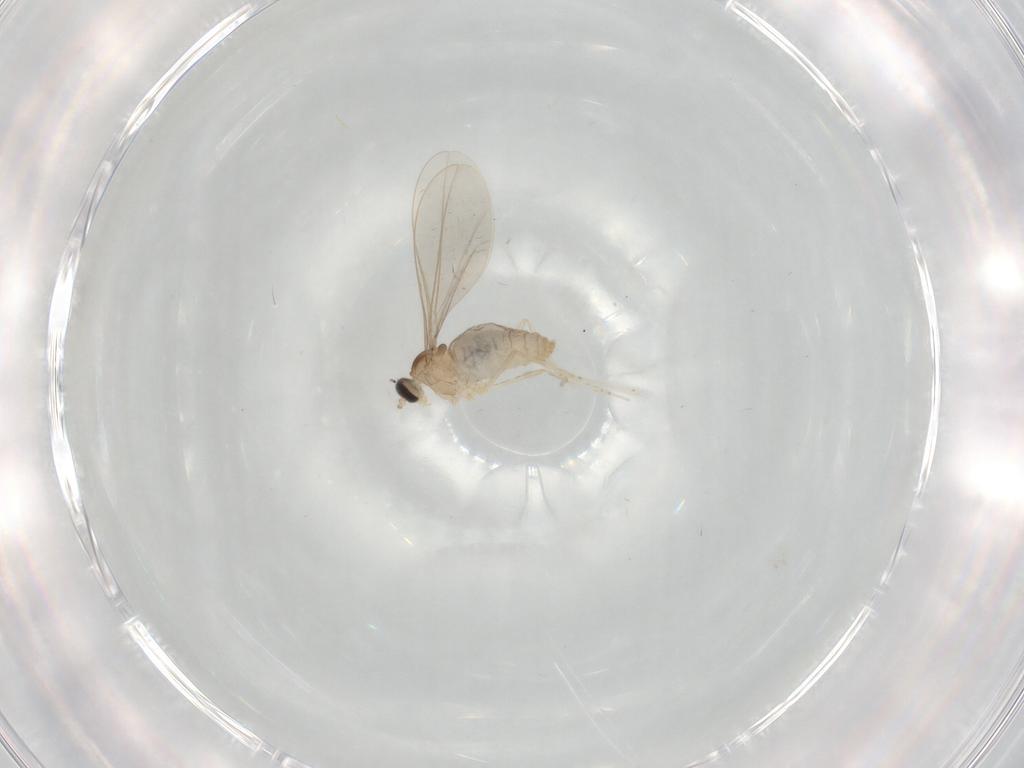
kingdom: Animalia
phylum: Arthropoda
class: Insecta
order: Diptera
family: Cecidomyiidae
